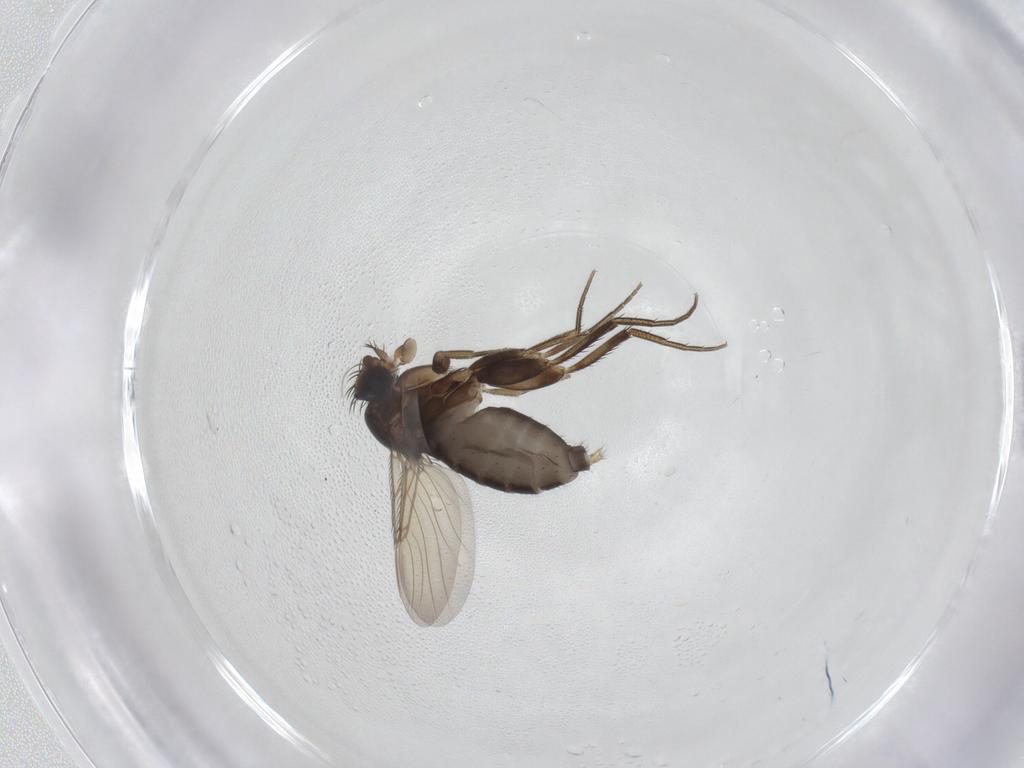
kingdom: Animalia
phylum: Arthropoda
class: Insecta
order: Diptera
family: Phoridae
